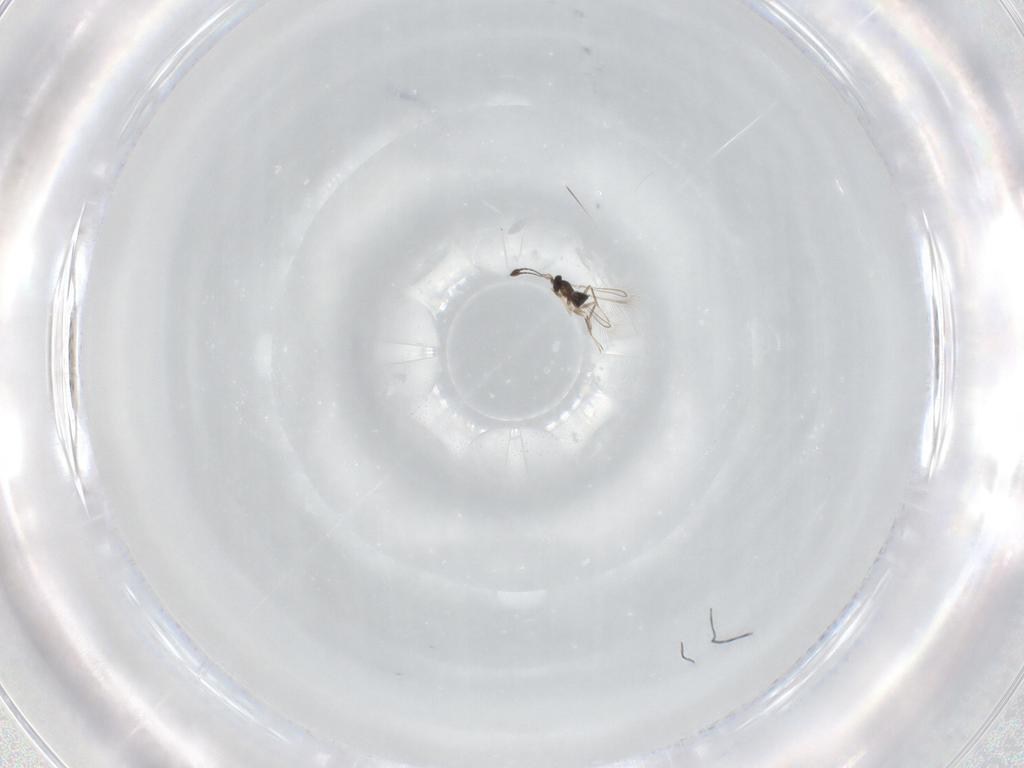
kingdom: Animalia
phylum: Arthropoda
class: Insecta
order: Hymenoptera
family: Mymaridae
